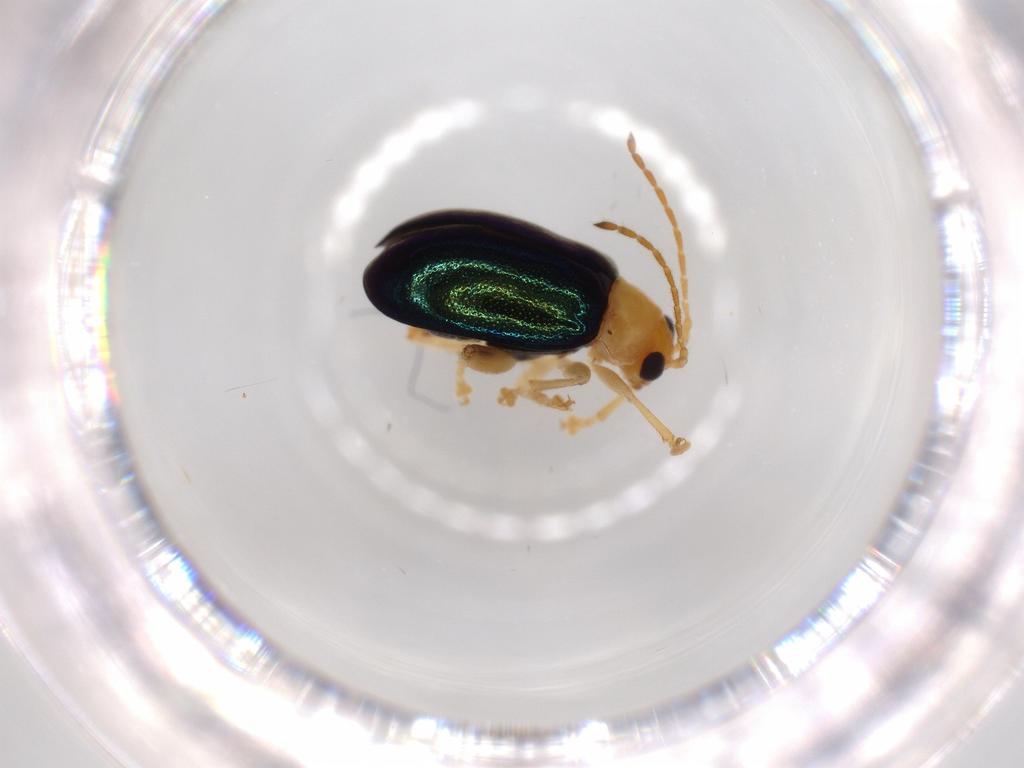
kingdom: Animalia
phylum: Arthropoda
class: Insecta
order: Coleoptera
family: Chrysomelidae
